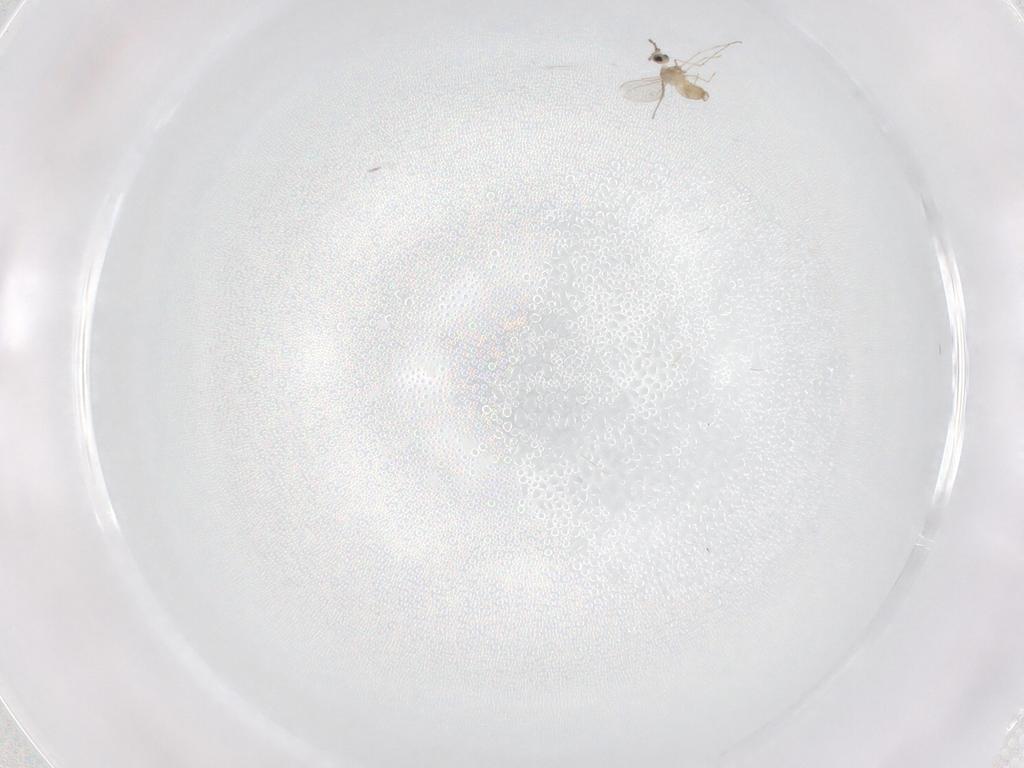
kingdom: Animalia
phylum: Arthropoda
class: Insecta
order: Diptera
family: Cecidomyiidae
